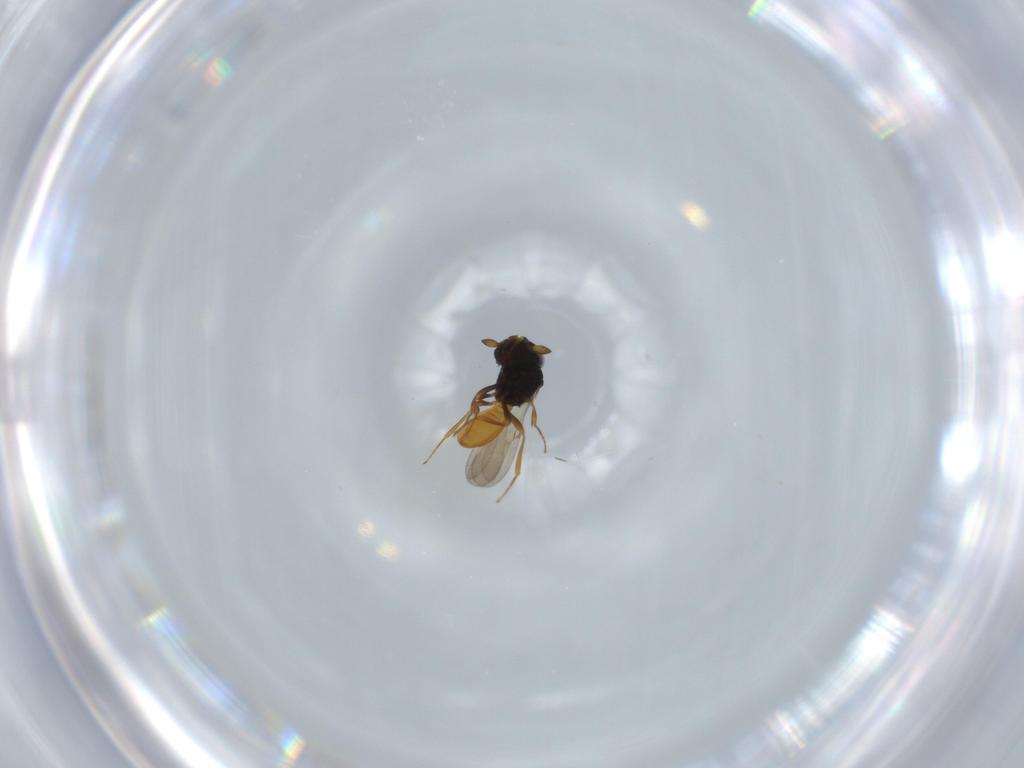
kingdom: Animalia
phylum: Arthropoda
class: Insecta
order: Hymenoptera
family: Scelionidae
